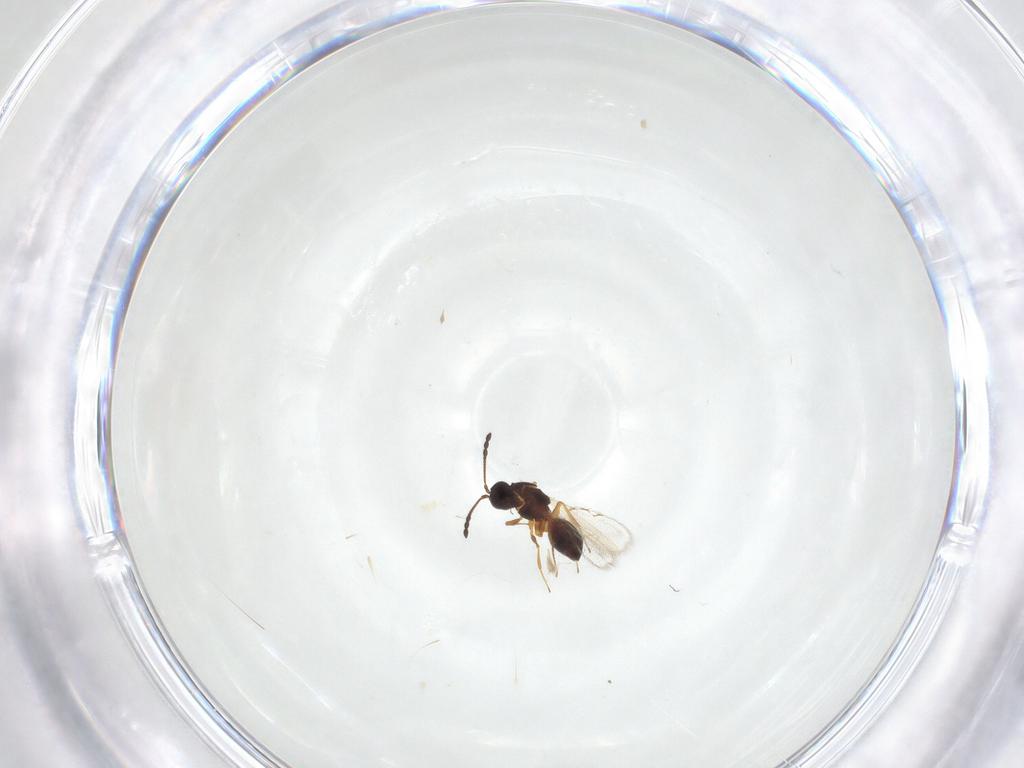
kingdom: Animalia
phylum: Arthropoda
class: Insecta
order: Hymenoptera
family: Figitidae
